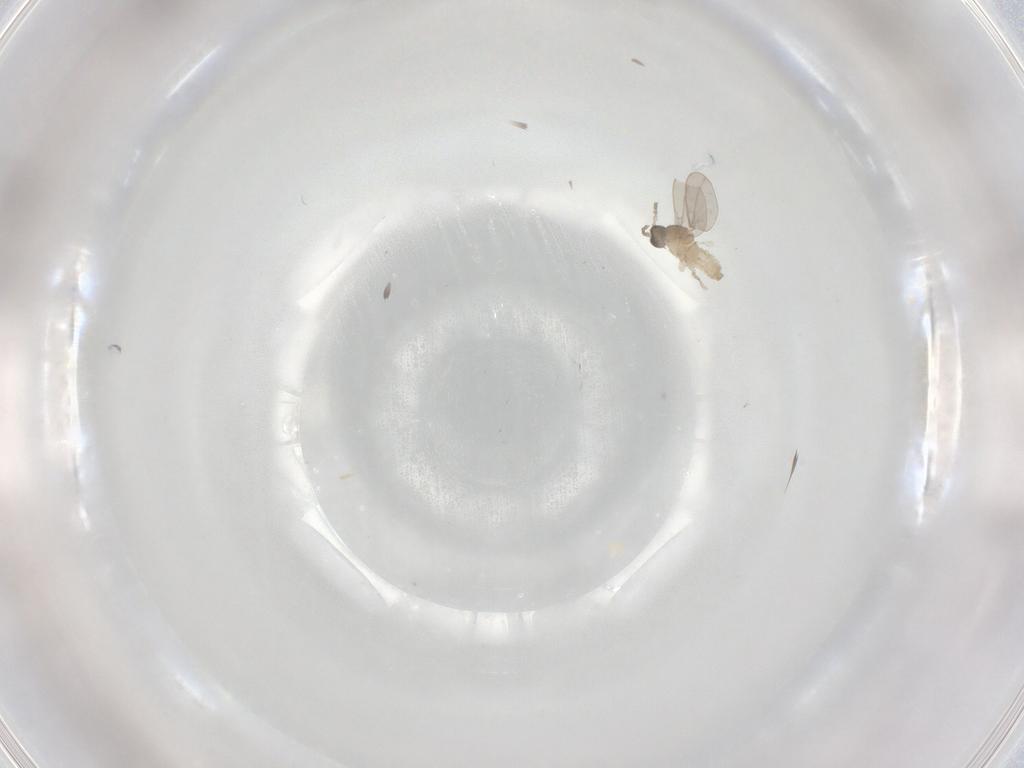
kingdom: Animalia
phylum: Arthropoda
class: Insecta
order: Diptera
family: Cecidomyiidae
